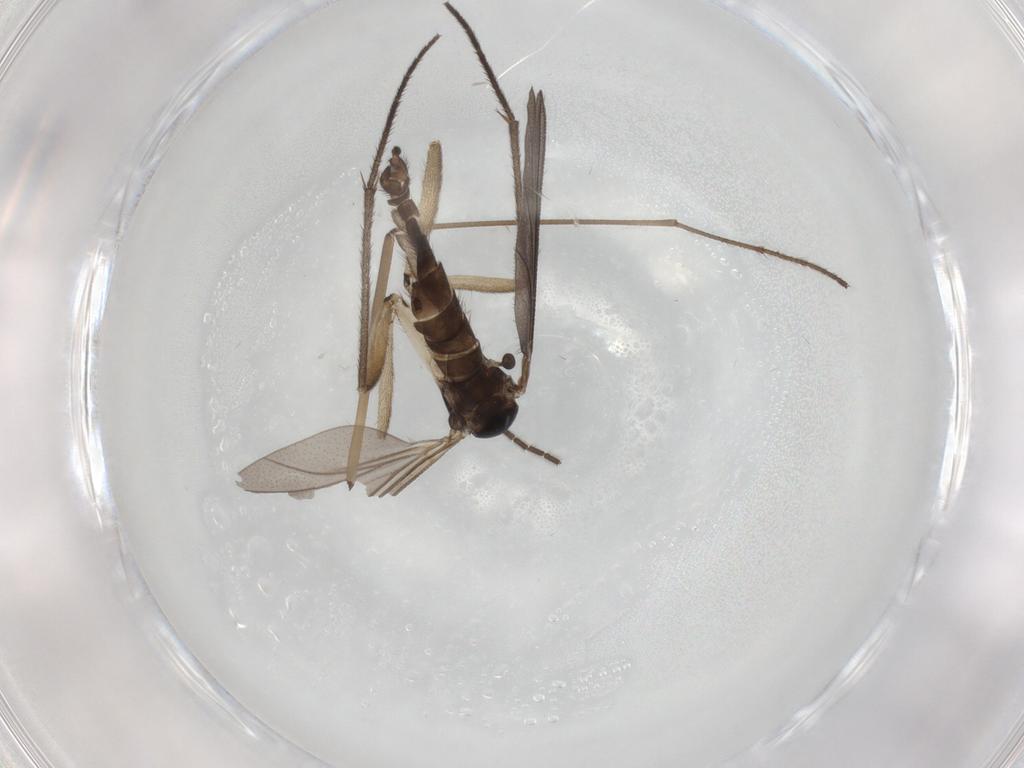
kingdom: Animalia
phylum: Arthropoda
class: Insecta
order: Diptera
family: Sciaridae
